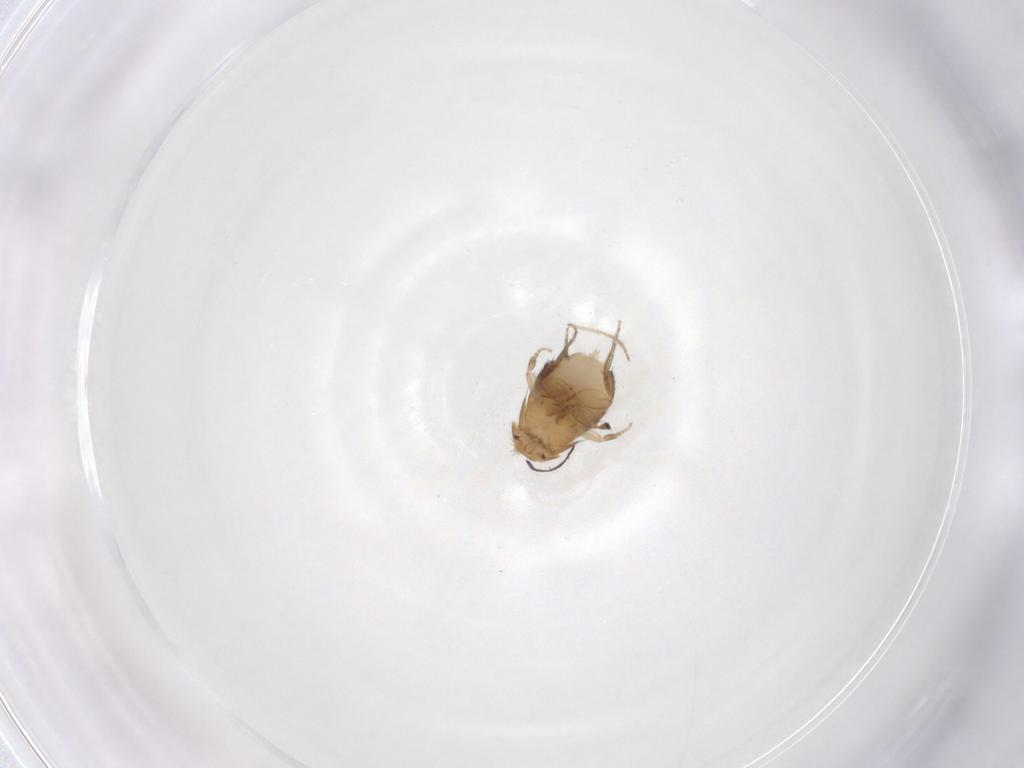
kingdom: Animalia
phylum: Arthropoda
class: Insecta
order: Diptera
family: Phoridae
